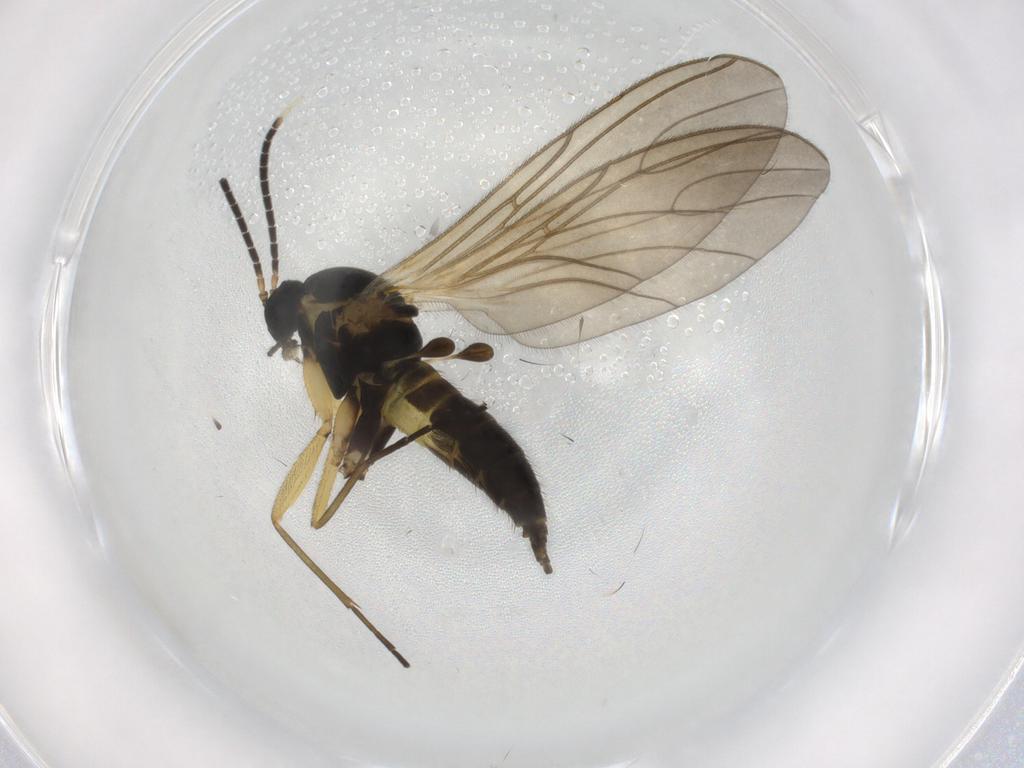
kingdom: Animalia
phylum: Arthropoda
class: Insecta
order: Diptera
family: Sciaridae
